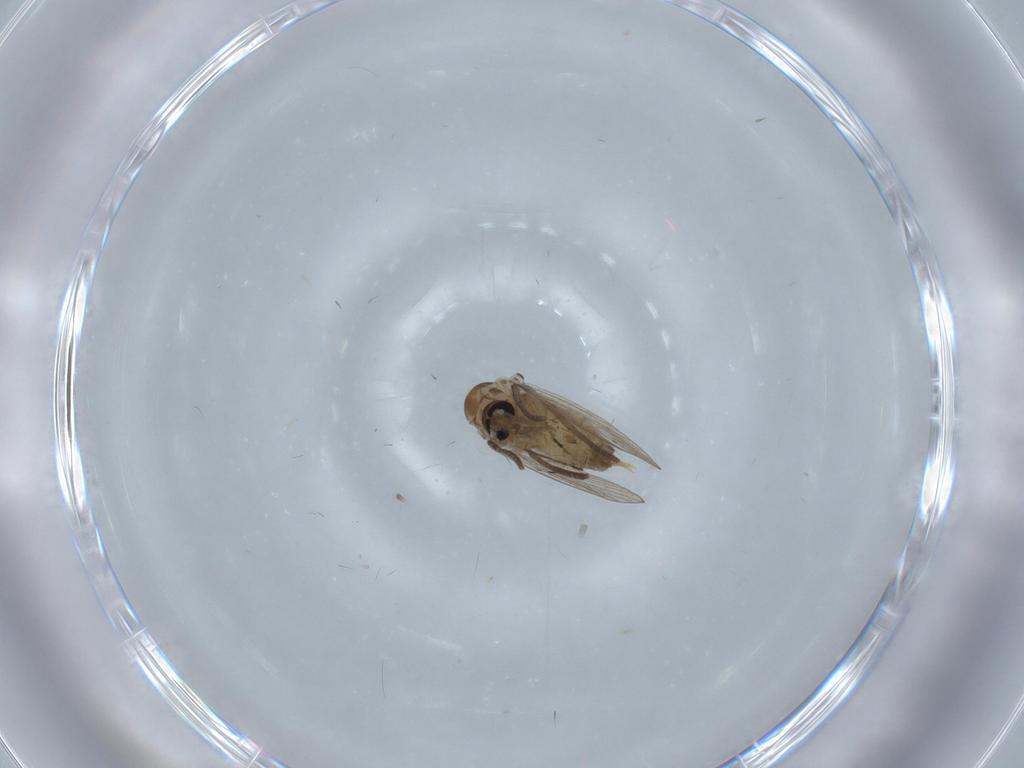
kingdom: Animalia
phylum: Arthropoda
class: Insecta
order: Diptera
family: Psychodidae
